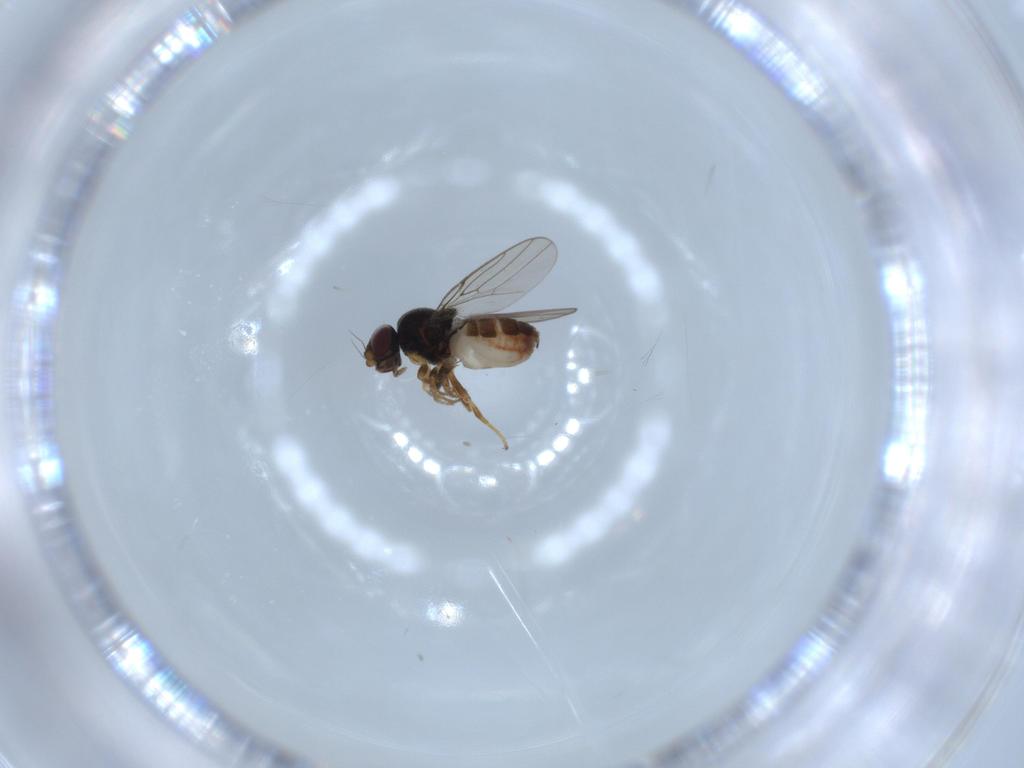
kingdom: Animalia
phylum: Arthropoda
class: Insecta
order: Diptera
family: Chloropidae
